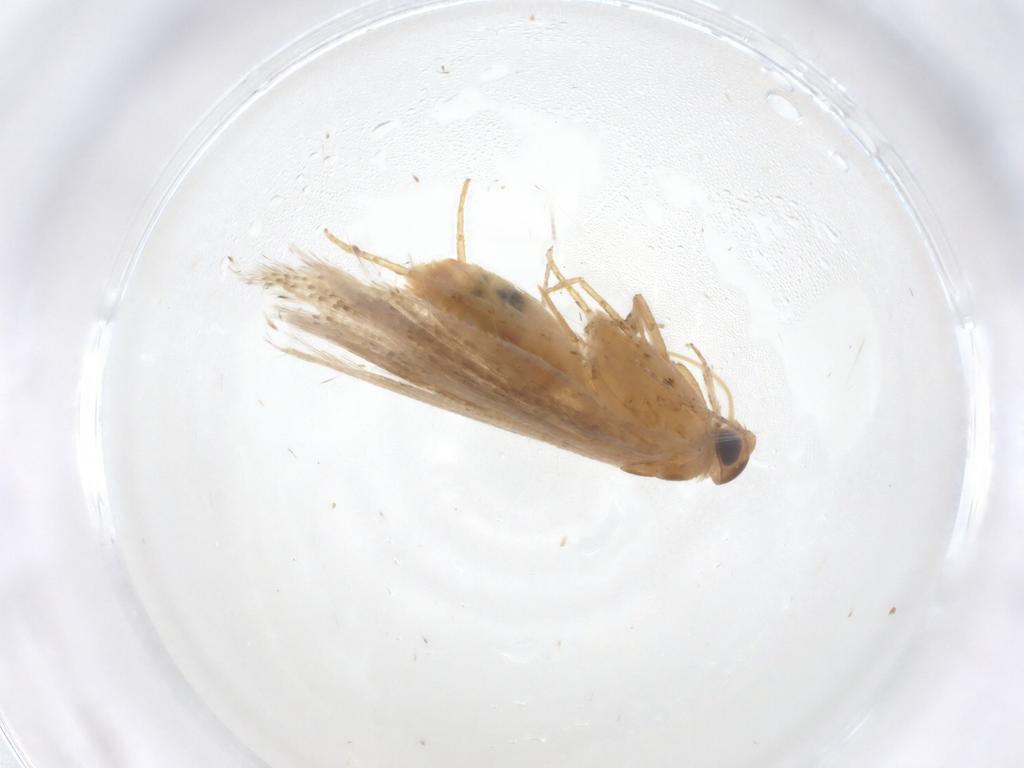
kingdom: Animalia
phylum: Arthropoda
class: Insecta
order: Lepidoptera
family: Gelechiidae
